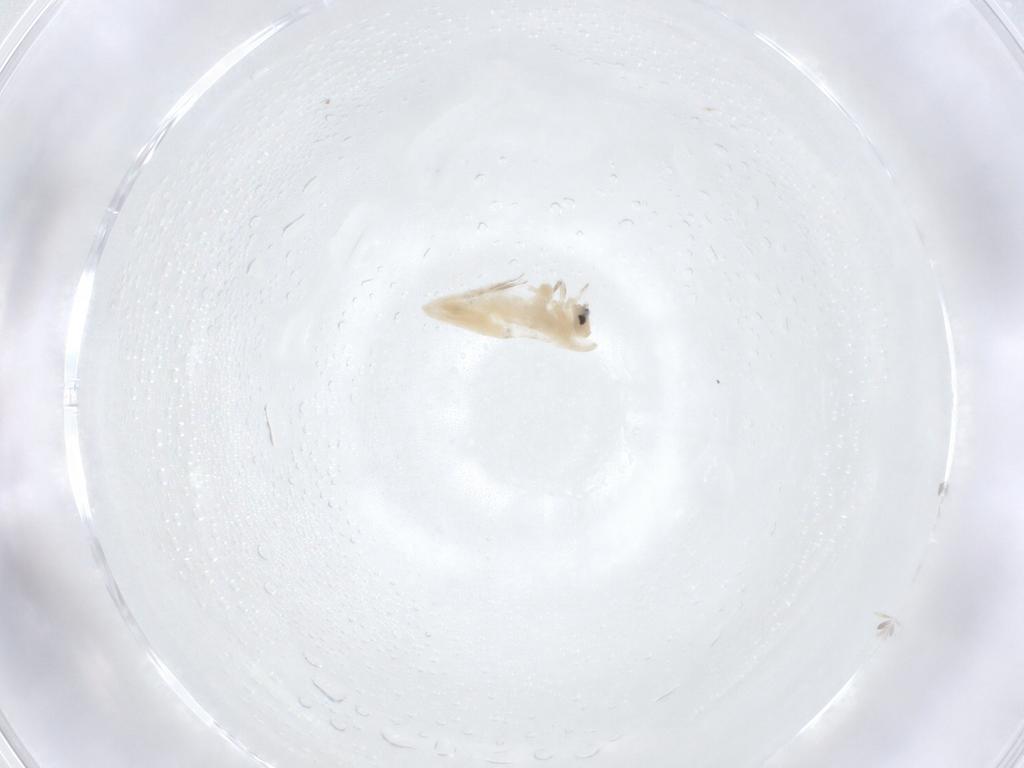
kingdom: Animalia
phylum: Arthropoda
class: Collembola
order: Entomobryomorpha
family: Entomobryidae
